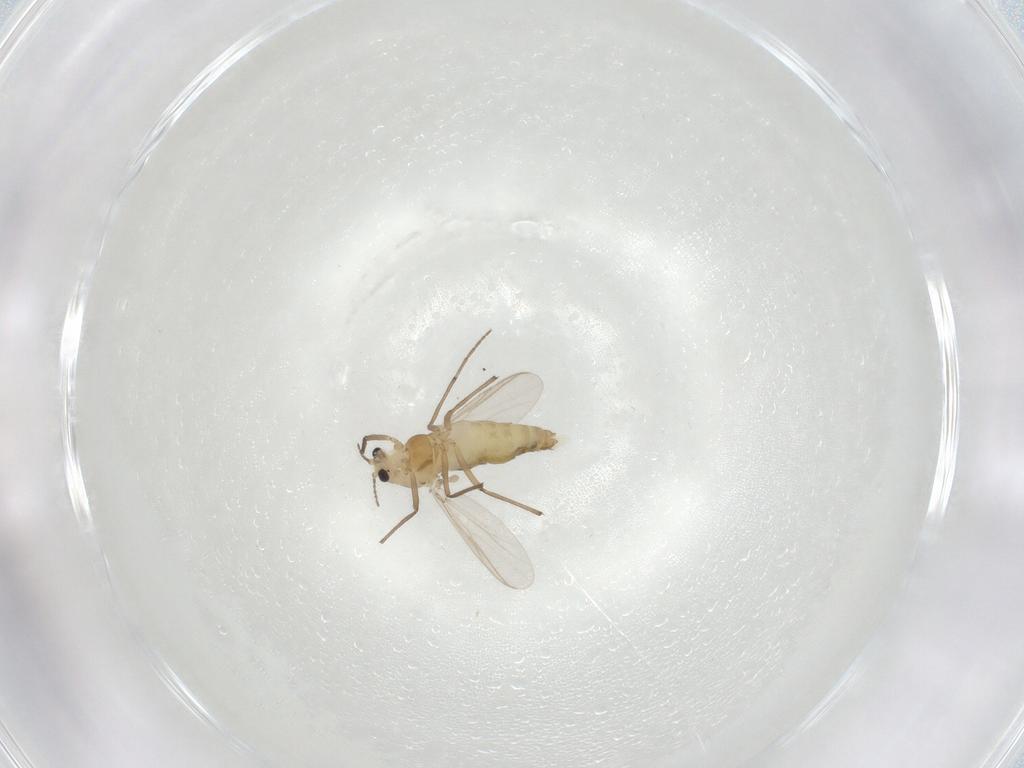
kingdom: Animalia
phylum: Arthropoda
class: Insecta
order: Diptera
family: Chironomidae
